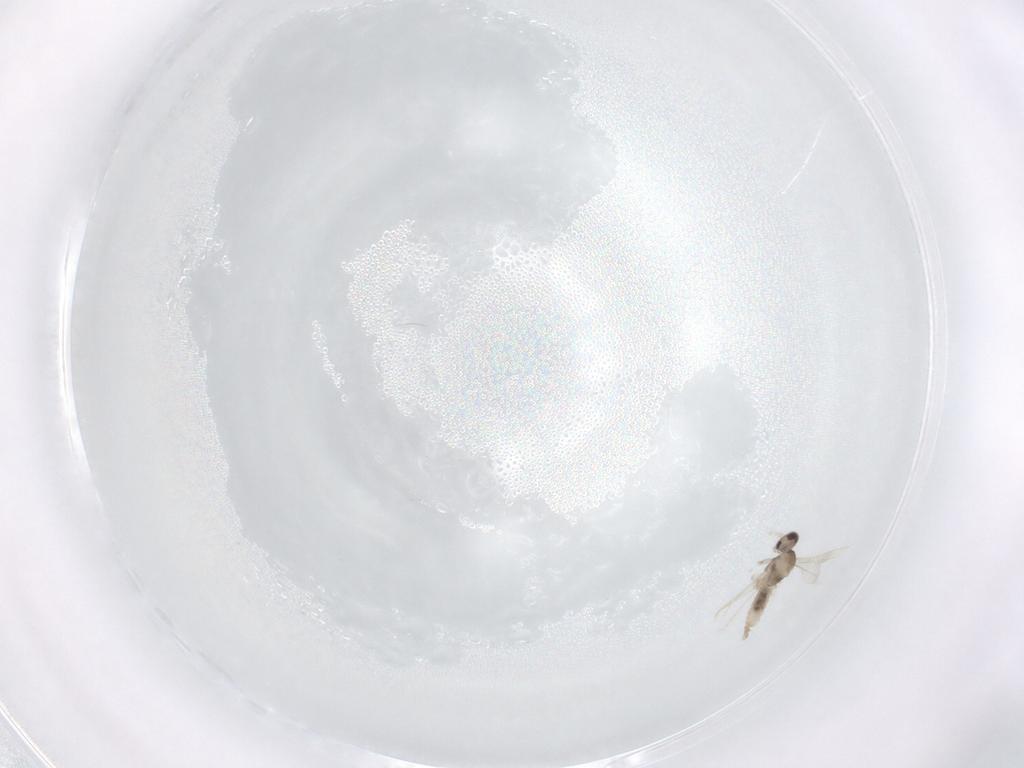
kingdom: Animalia
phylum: Arthropoda
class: Insecta
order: Diptera
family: Cecidomyiidae
